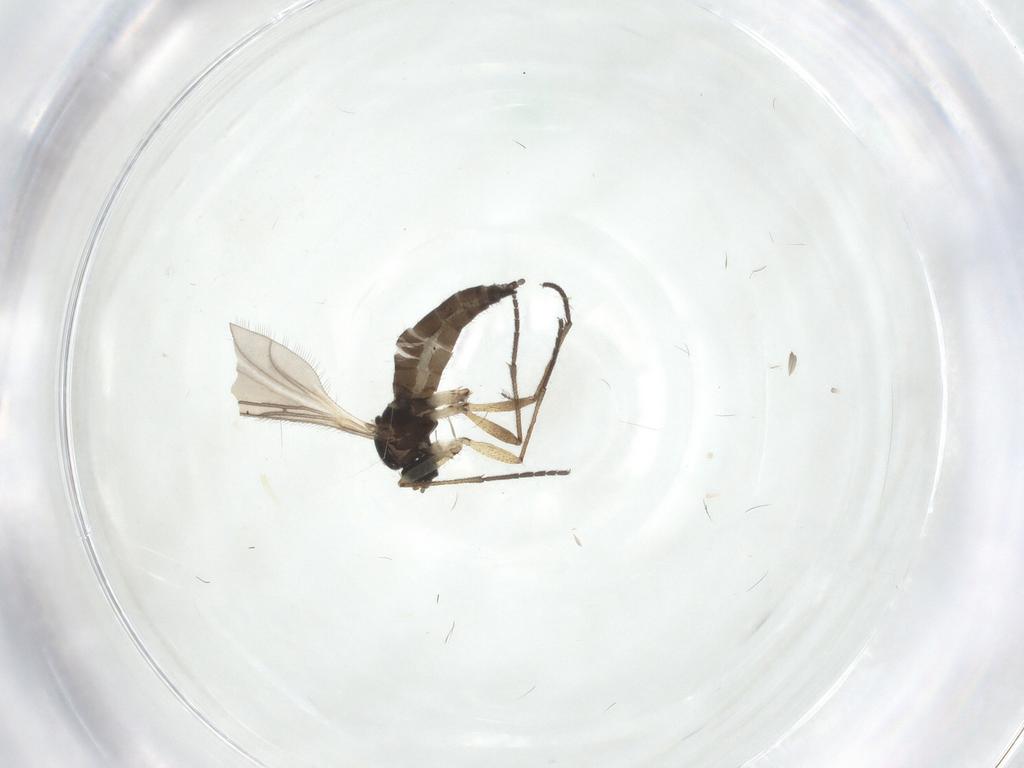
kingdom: Animalia
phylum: Arthropoda
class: Insecta
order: Diptera
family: Sciaridae
